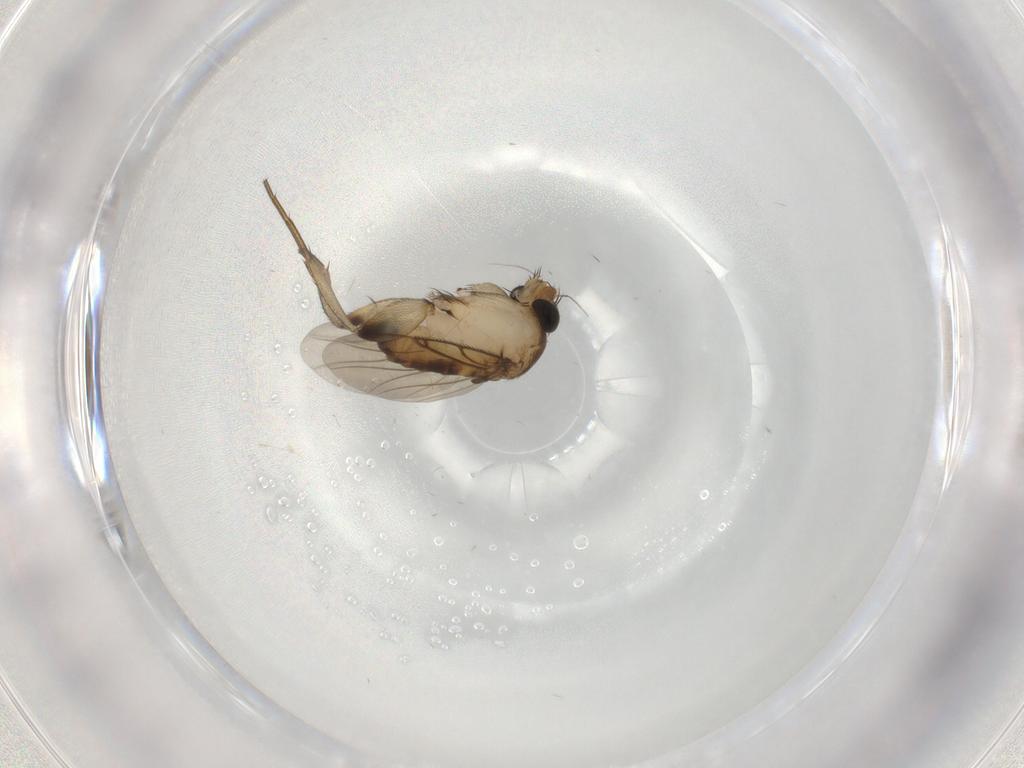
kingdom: Animalia
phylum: Arthropoda
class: Insecta
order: Diptera
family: Phoridae
